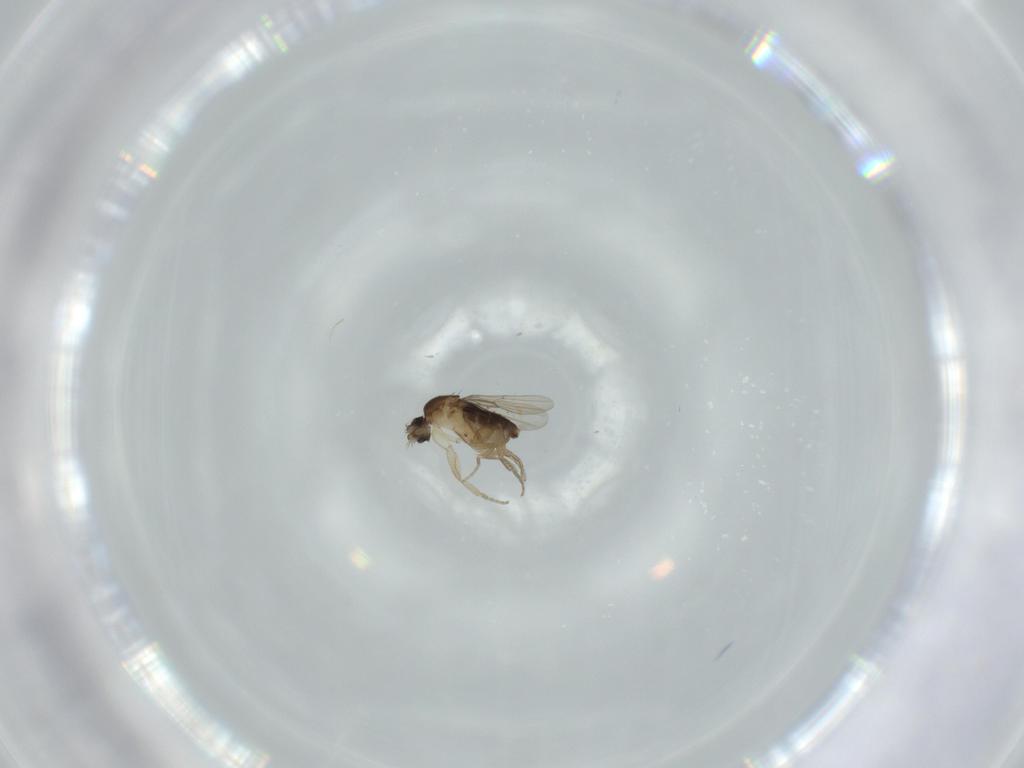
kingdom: Animalia
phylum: Arthropoda
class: Insecta
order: Diptera
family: Phoridae
